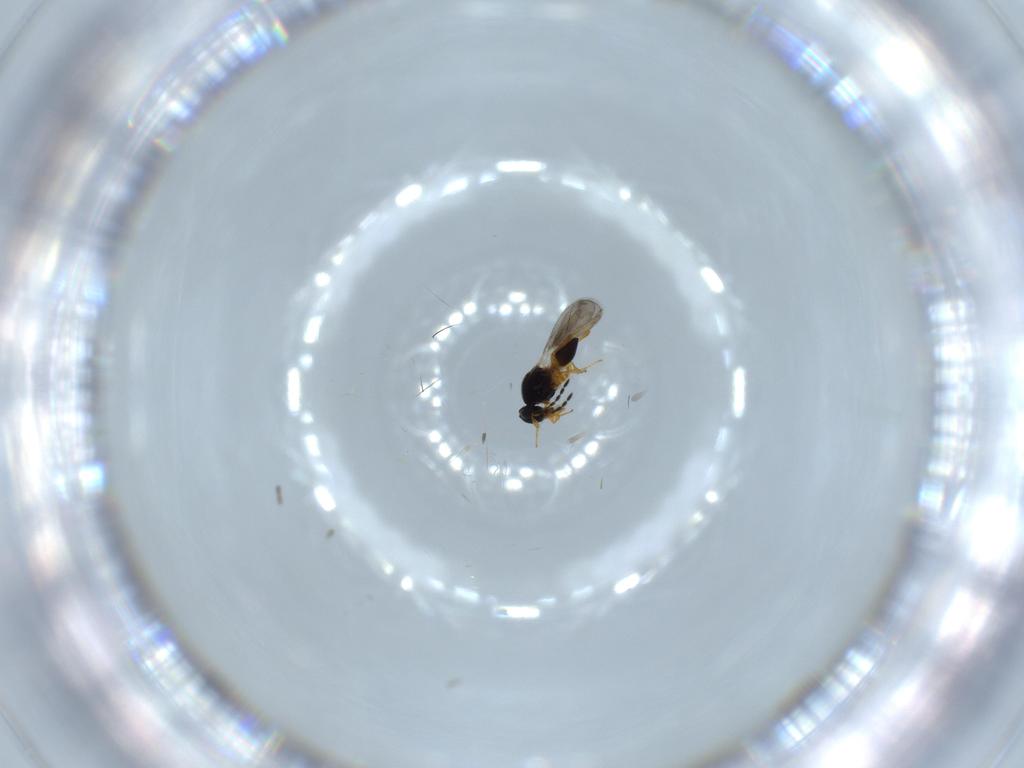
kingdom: Animalia
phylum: Arthropoda
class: Insecta
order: Hymenoptera
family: Platygastridae
